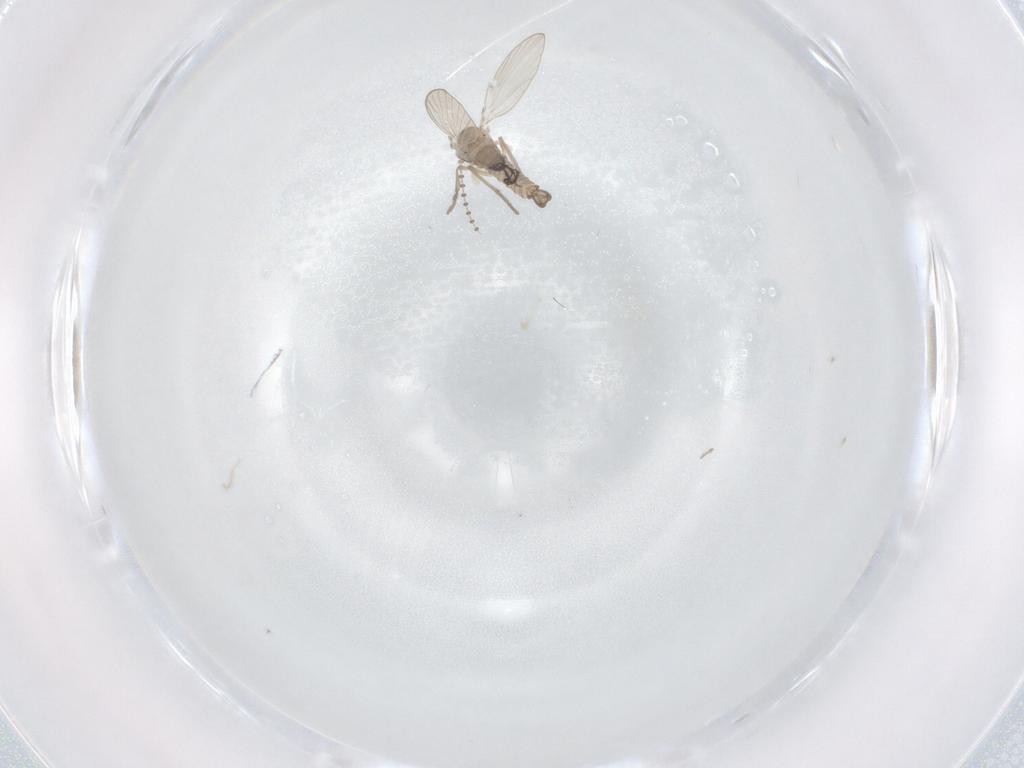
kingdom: Animalia
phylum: Arthropoda
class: Insecta
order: Diptera
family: Psychodidae
